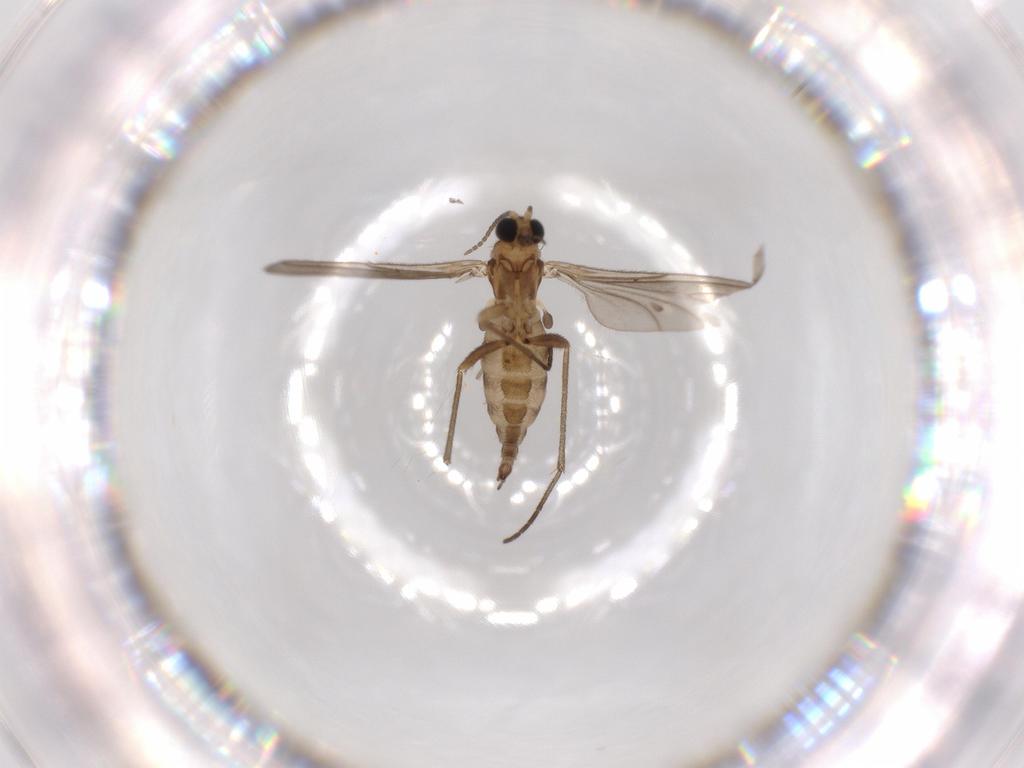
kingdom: Animalia
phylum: Arthropoda
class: Insecta
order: Diptera
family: Sciaridae
